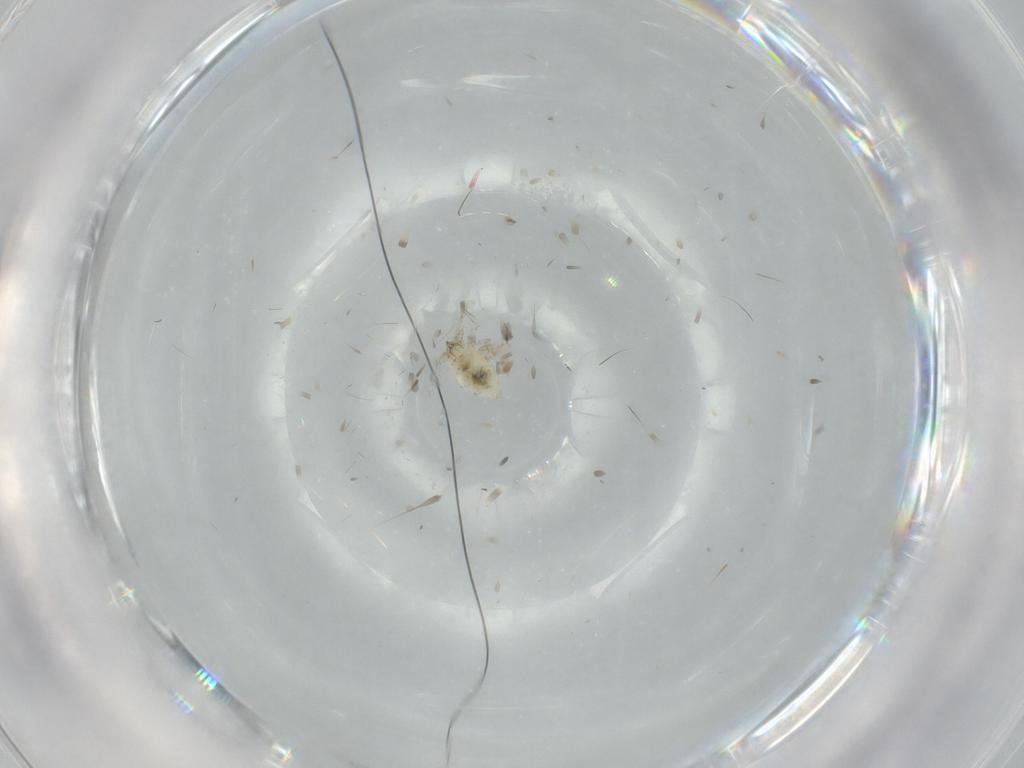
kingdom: Animalia
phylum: Arthropoda
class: Insecta
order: Neuroptera
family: Coniopterygidae
